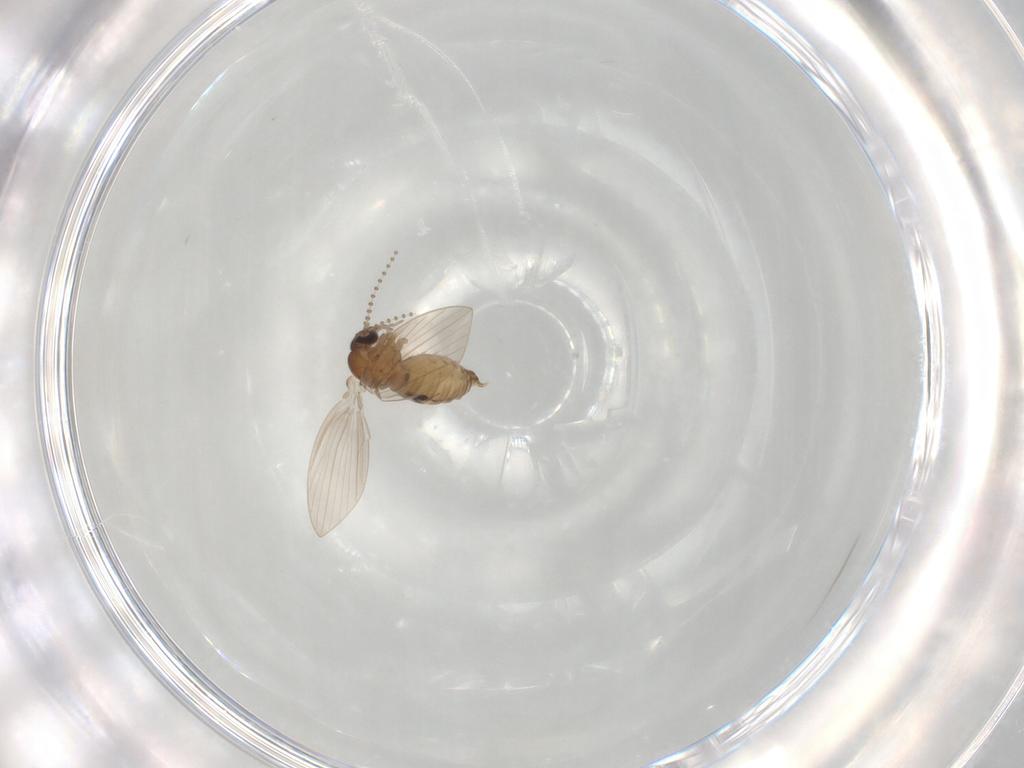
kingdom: Animalia
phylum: Arthropoda
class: Insecta
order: Diptera
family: Psychodidae
